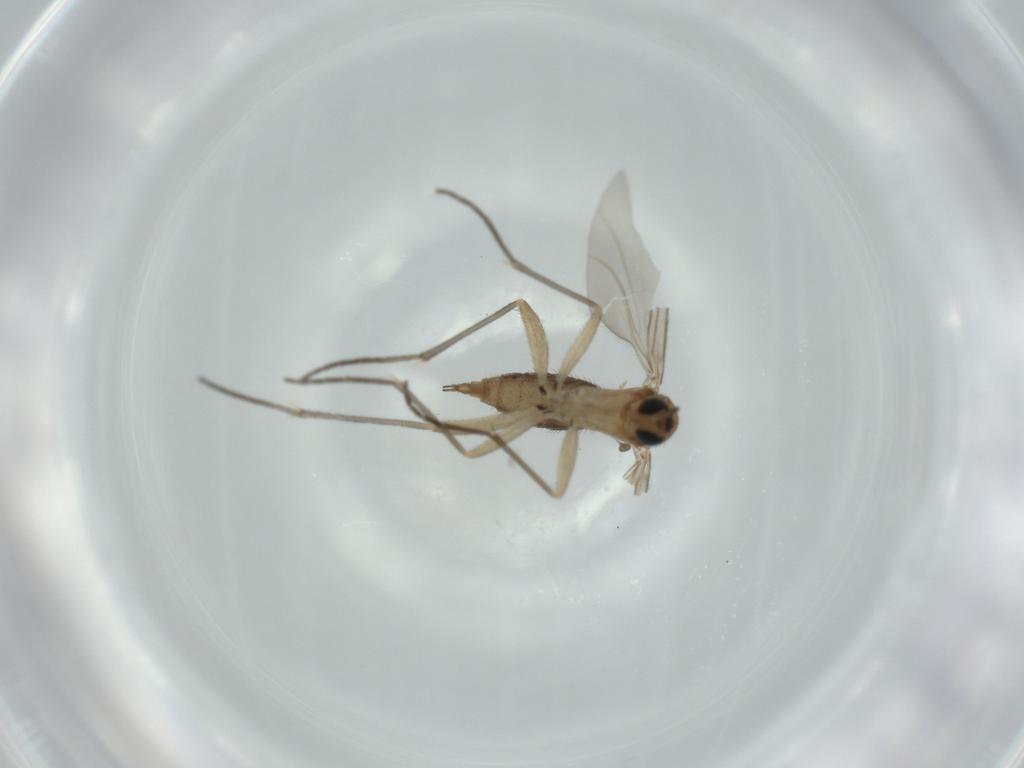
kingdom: Animalia
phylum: Arthropoda
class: Insecta
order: Diptera
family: Sciaridae
